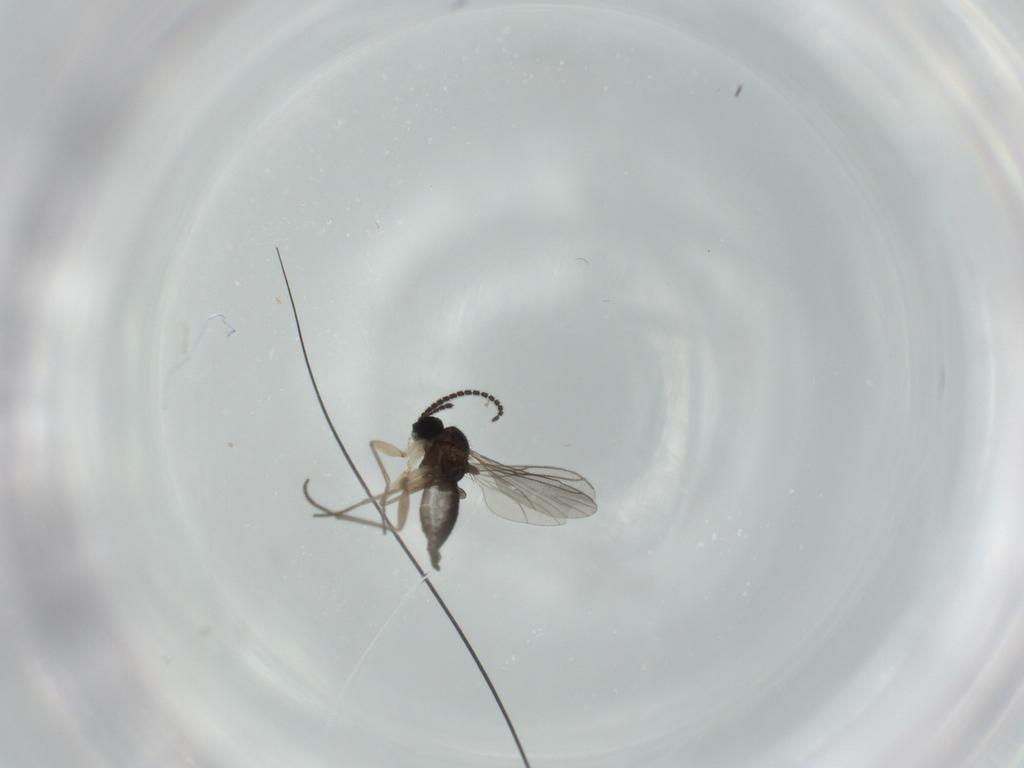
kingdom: Animalia
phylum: Arthropoda
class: Insecta
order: Diptera
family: Sciaridae
